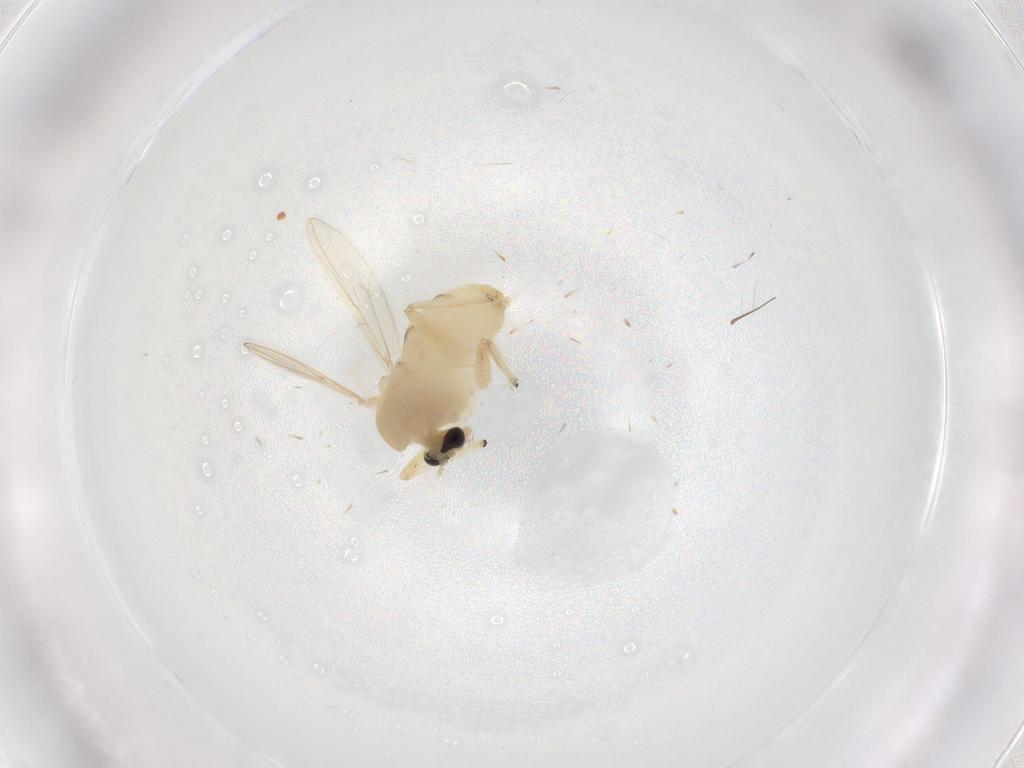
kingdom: Animalia
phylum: Arthropoda
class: Insecta
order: Diptera
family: Chironomidae
